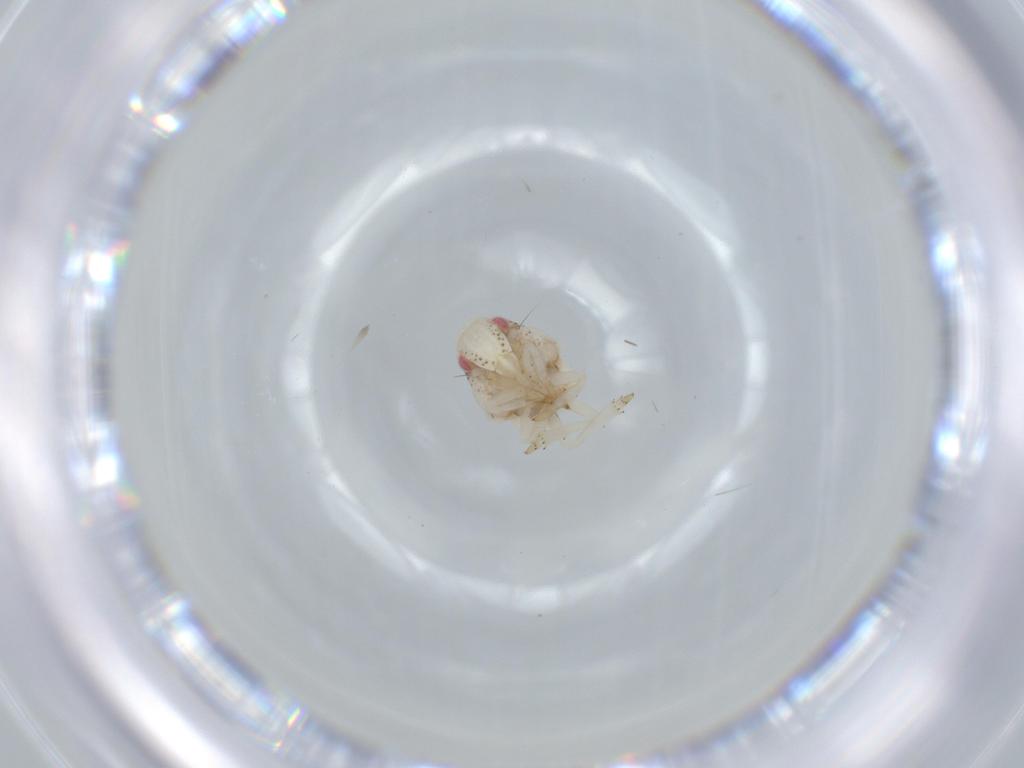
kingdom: Animalia
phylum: Arthropoda
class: Insecta
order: Hemiptera
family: Acanaloniidae
